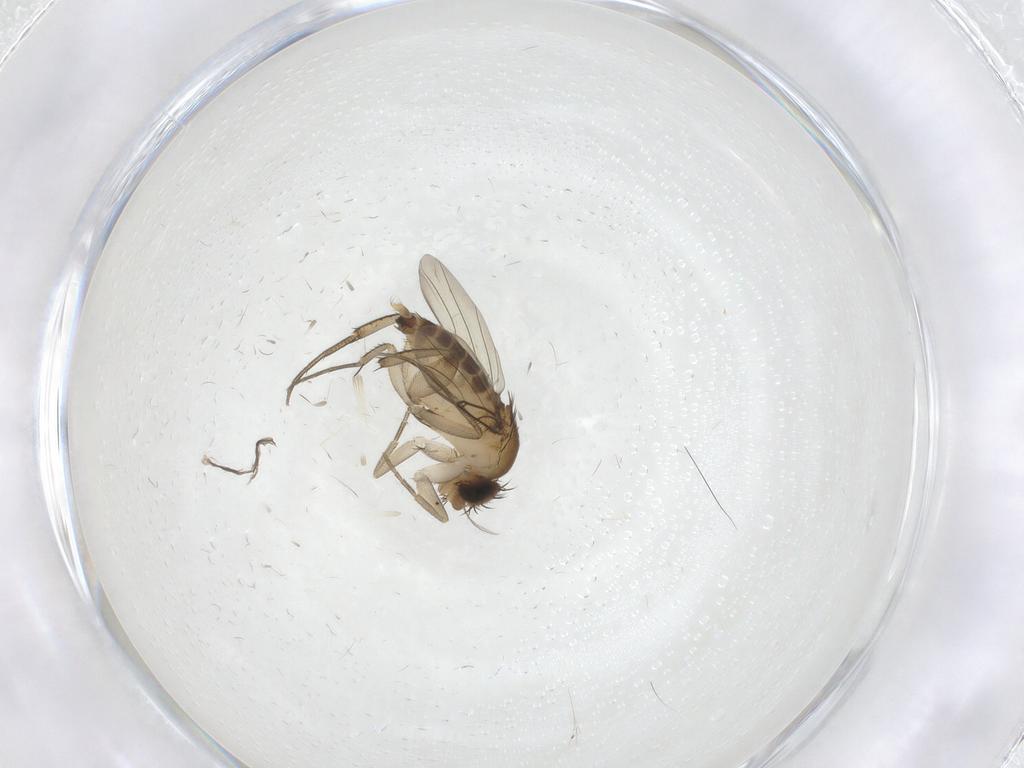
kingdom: Animalia
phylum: Arthropoda
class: Insecta
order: Diptera
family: Phoridae
